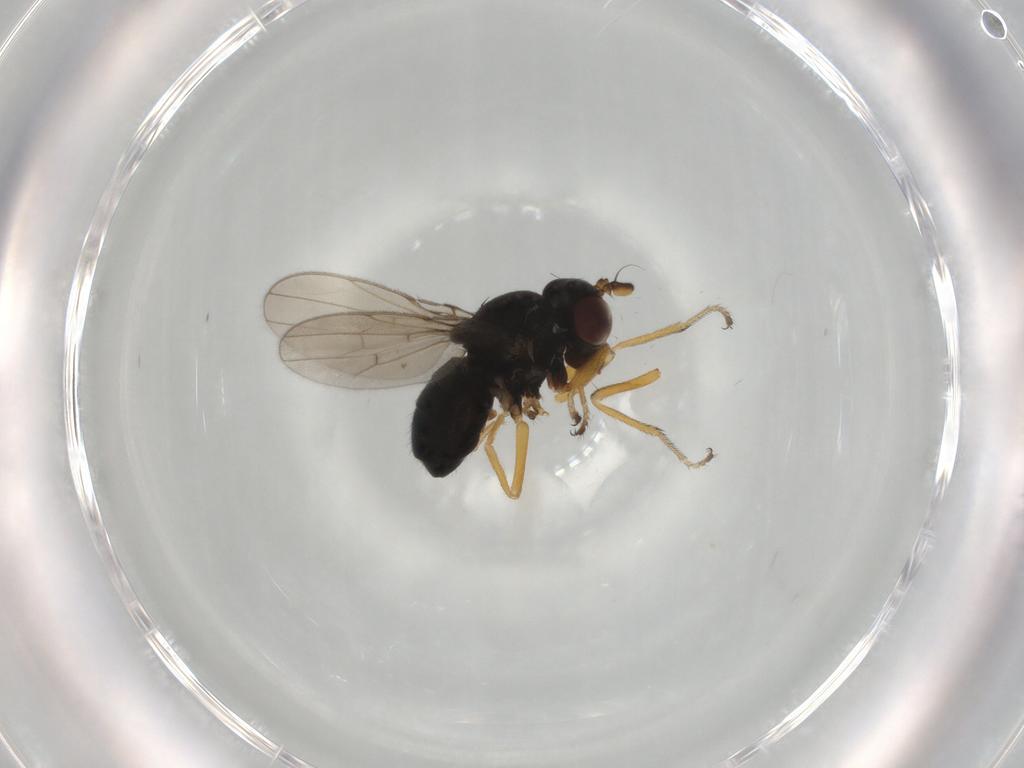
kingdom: Animalia
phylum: Arthropoda
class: Insecta
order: Diptera
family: Ephydridae
